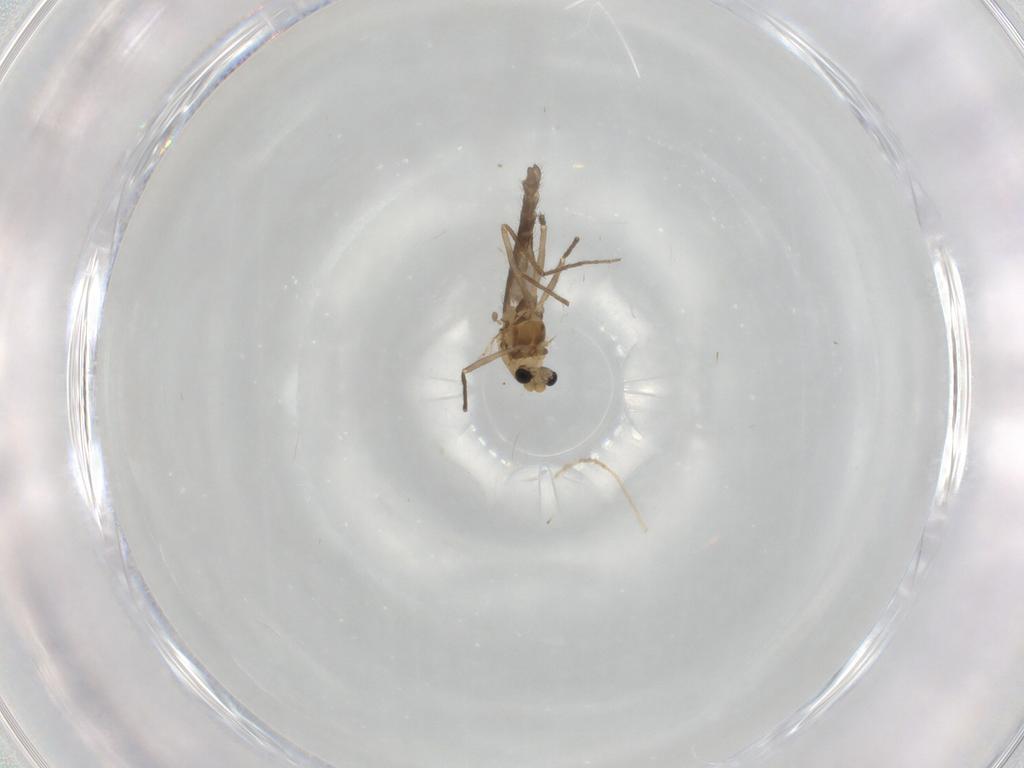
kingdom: Animalia
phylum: Arthropoda
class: Insecta
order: Diptera
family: Chironomidae
